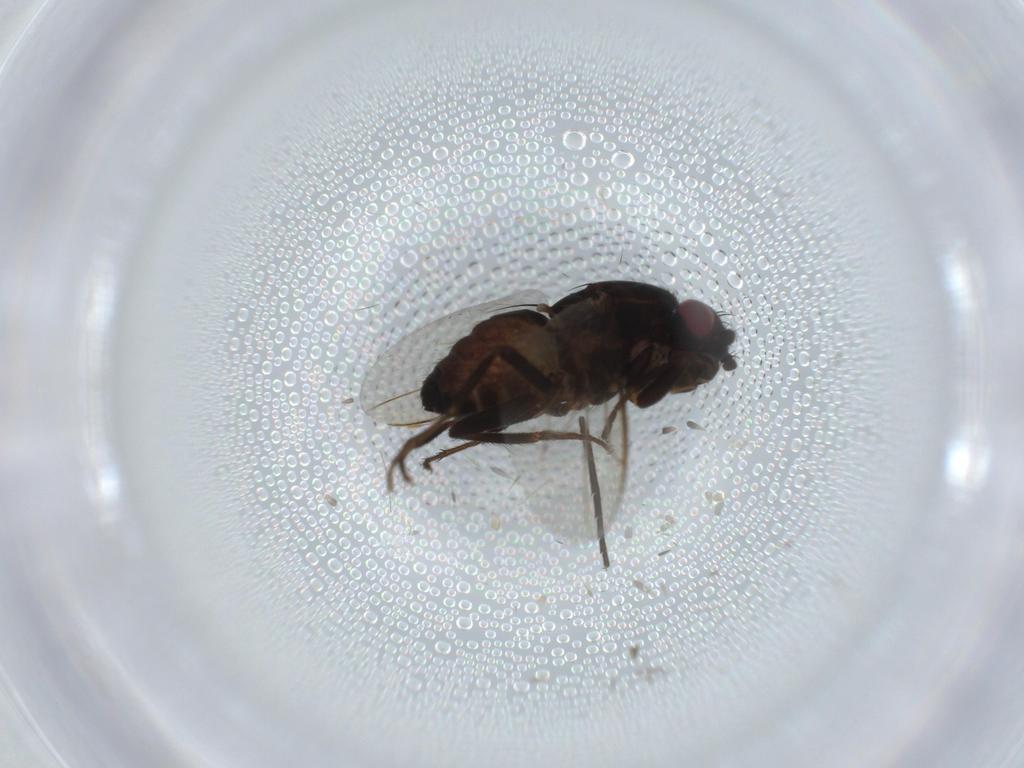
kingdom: Animalia
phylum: Arthropoda
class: Insecta
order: Diptera
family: Sphaeroceridae
